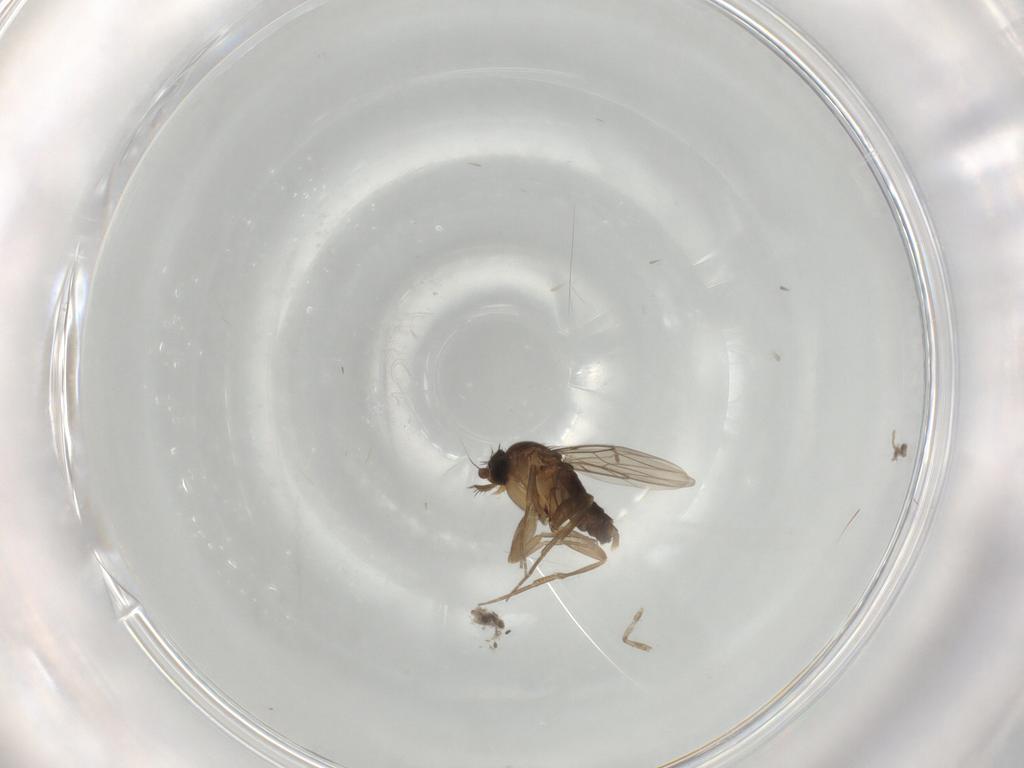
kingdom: Animalia
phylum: Arthropoda
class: Insecta
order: Diptera
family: Phoridae
